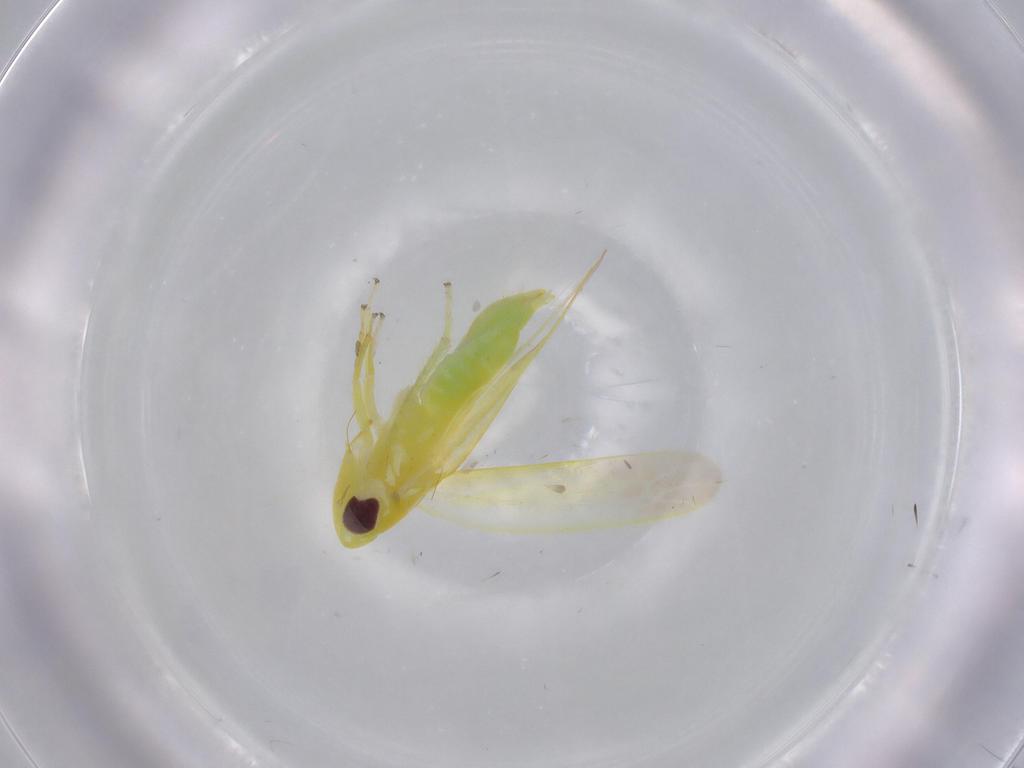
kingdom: Animalia
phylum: Arthropoda
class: Insecta
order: Hemiptera
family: Cicadellidae
